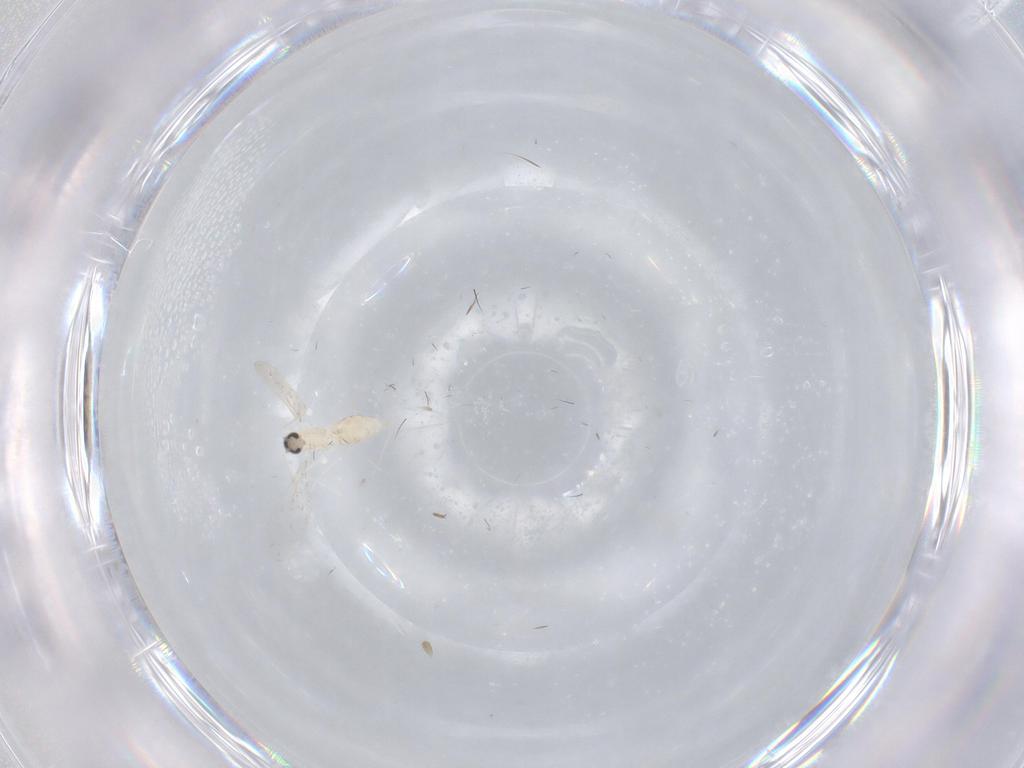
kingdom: Animalia
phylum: Arthropoda
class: Insecta
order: Diptera
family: Cecidomyiidae
